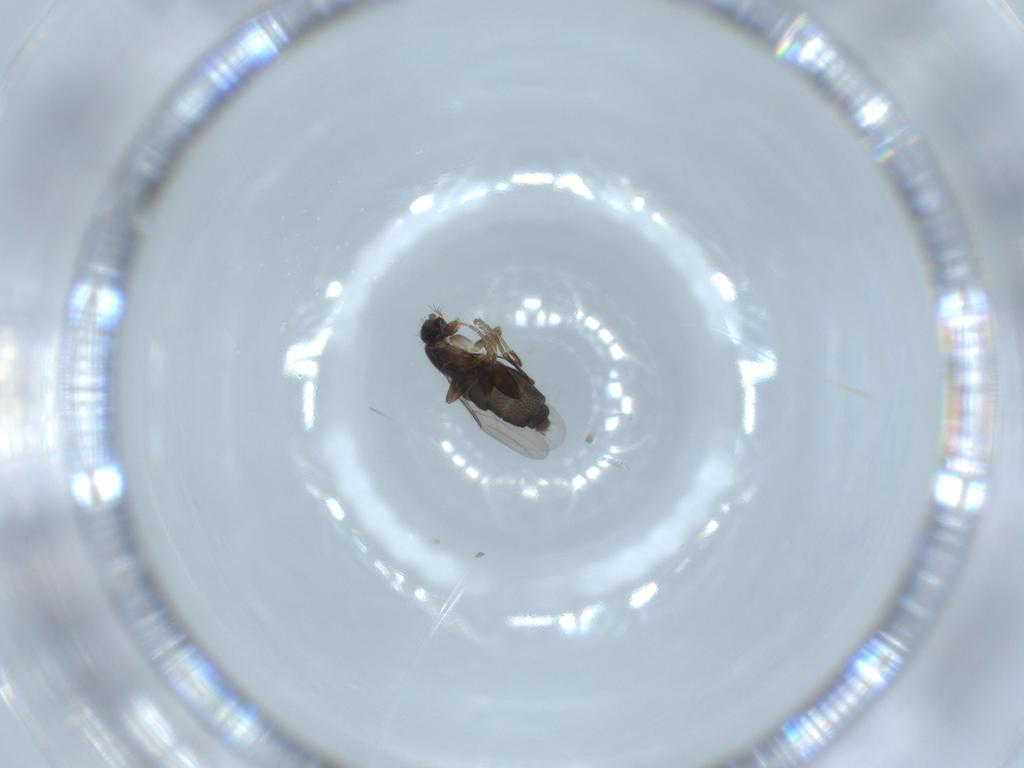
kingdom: Animalia
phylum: Arthropoda
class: Insecta
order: Diptera
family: Phoridae
